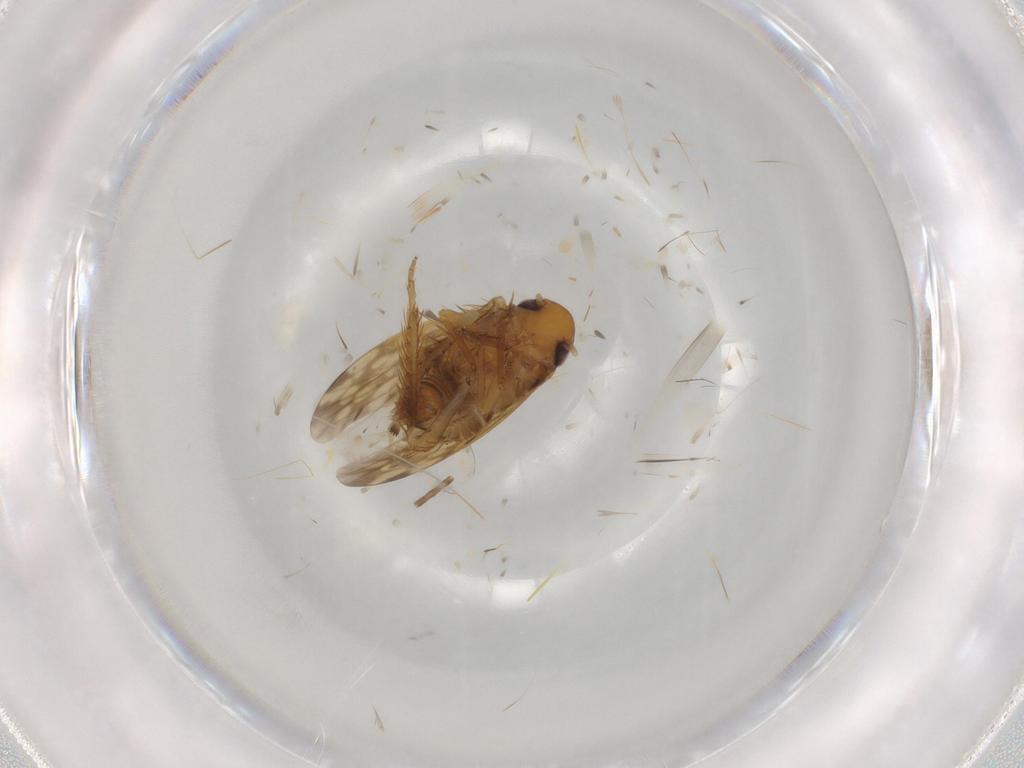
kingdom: Animalia
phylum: Arthropoda
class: Insecta
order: Hemiptera
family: Cicadellidae
